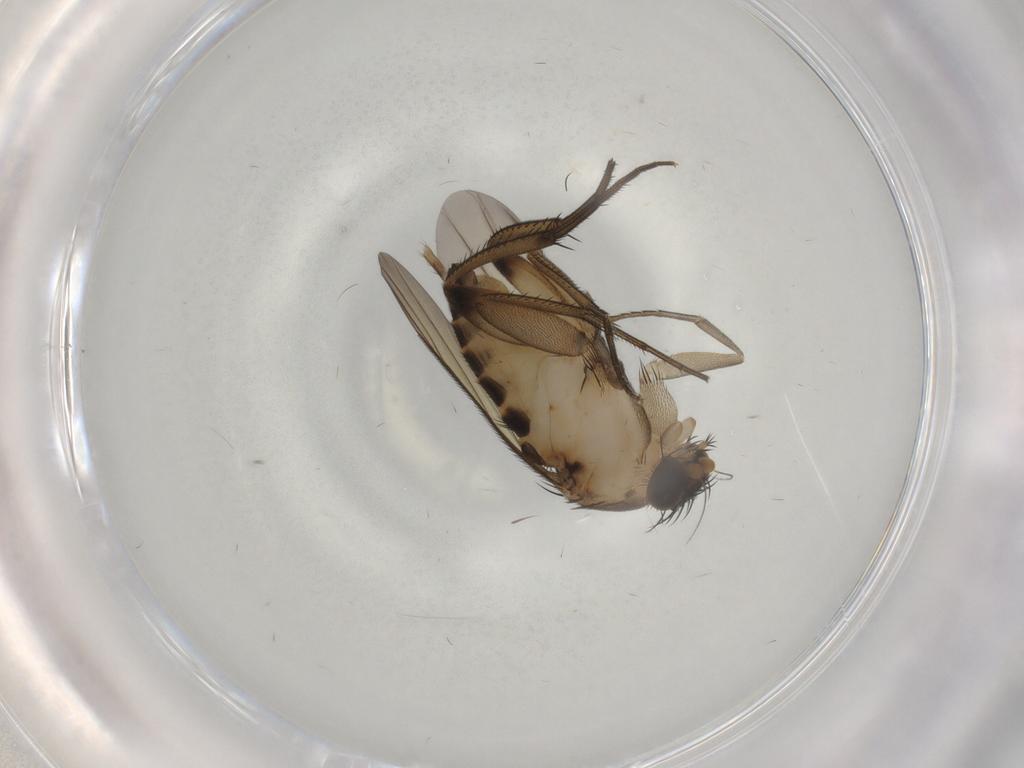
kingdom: Animalia
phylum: Arthropoda
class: Insecta
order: Diptera
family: Phoridae
